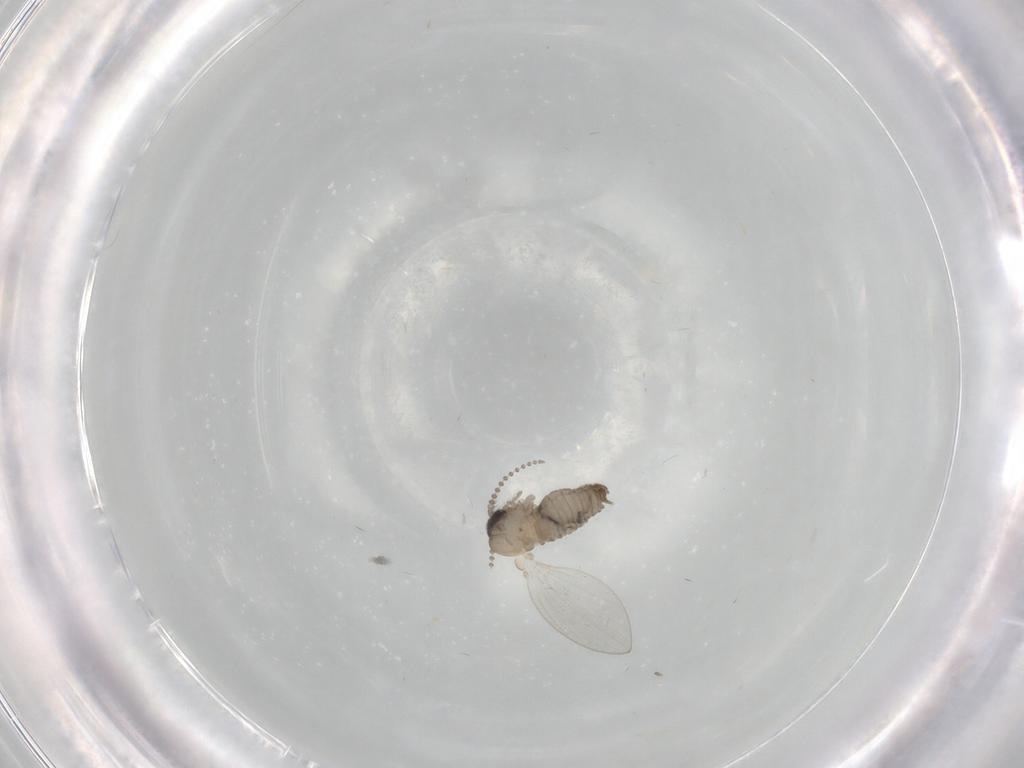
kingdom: Animalia
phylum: Arthropoda
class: Insecta
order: Diptera
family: Psychodidae
